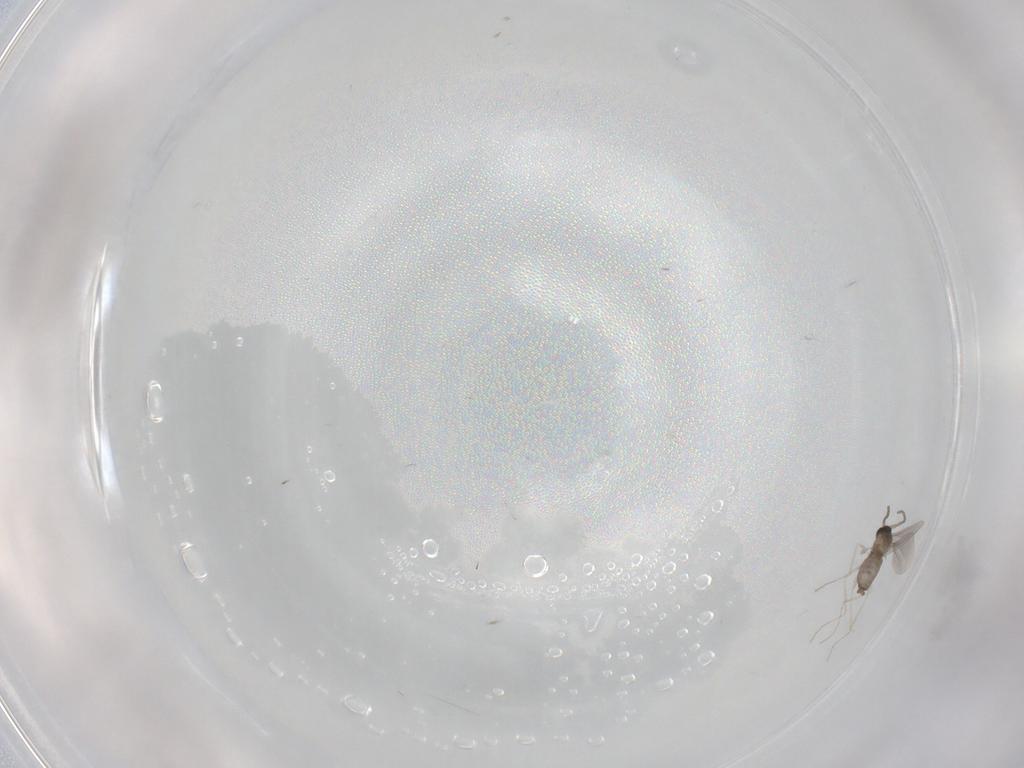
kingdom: Animalia
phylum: Arthropoda
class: Insecta
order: Diptera
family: Cecidomyiidae
